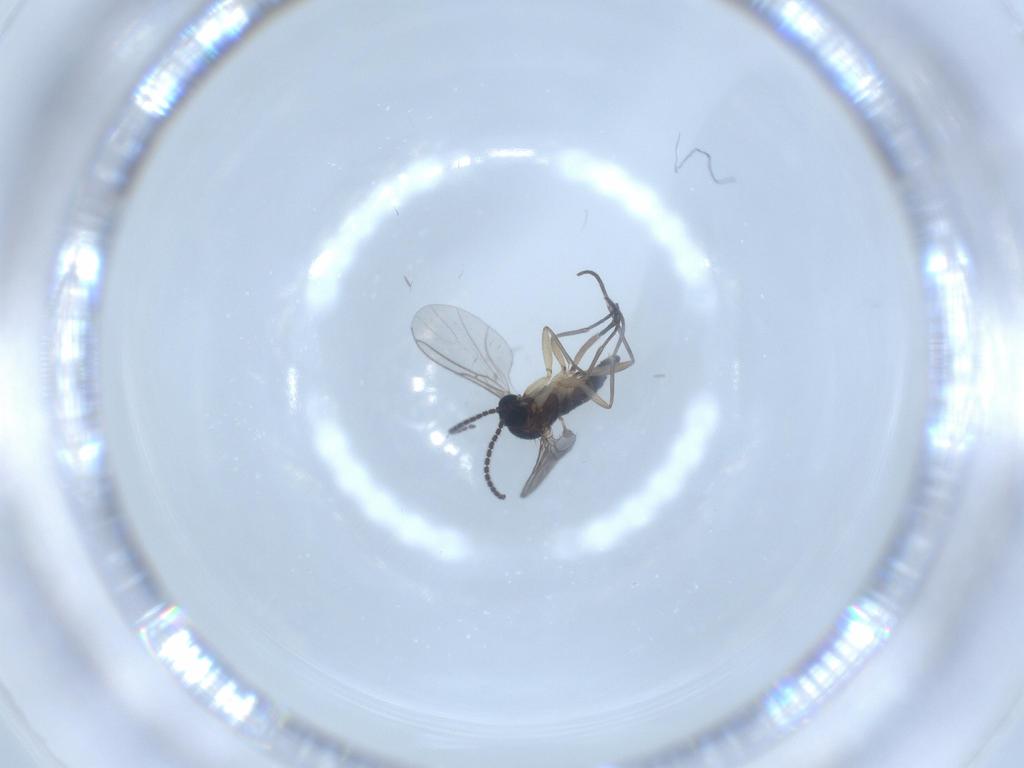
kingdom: Animalia
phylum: Arthropoda
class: Insecta
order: Diptera
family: Sciaridae
